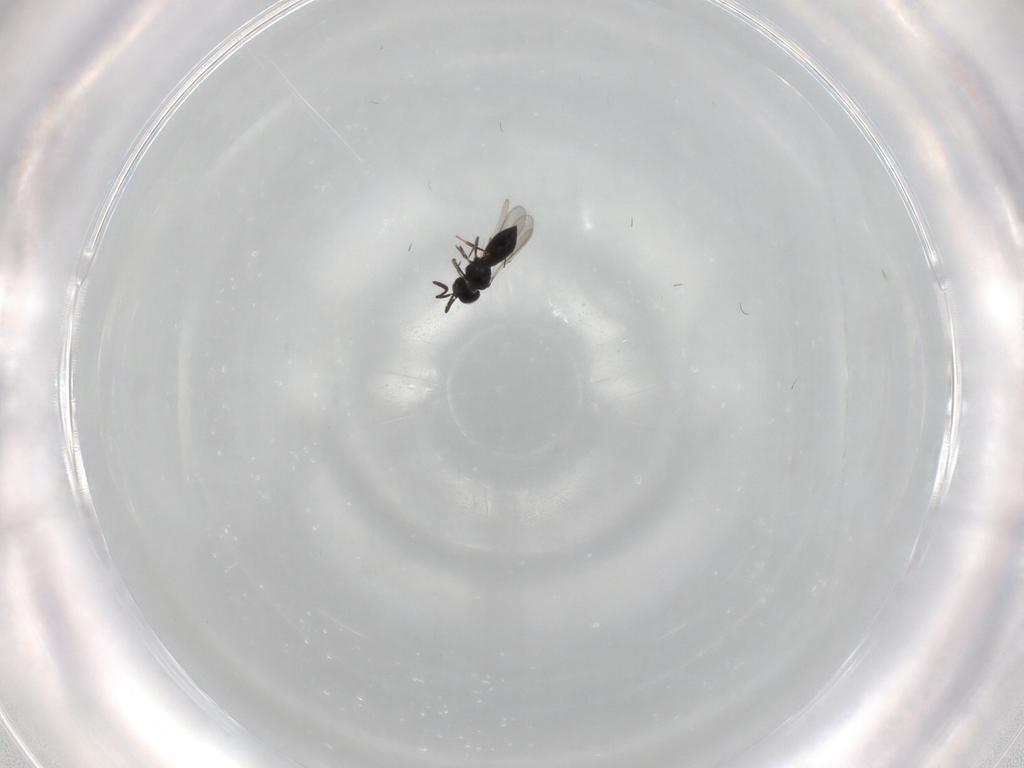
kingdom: Animalia
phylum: Arthropoda
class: Insecta
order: Hymenoptera
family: Scelionidae
